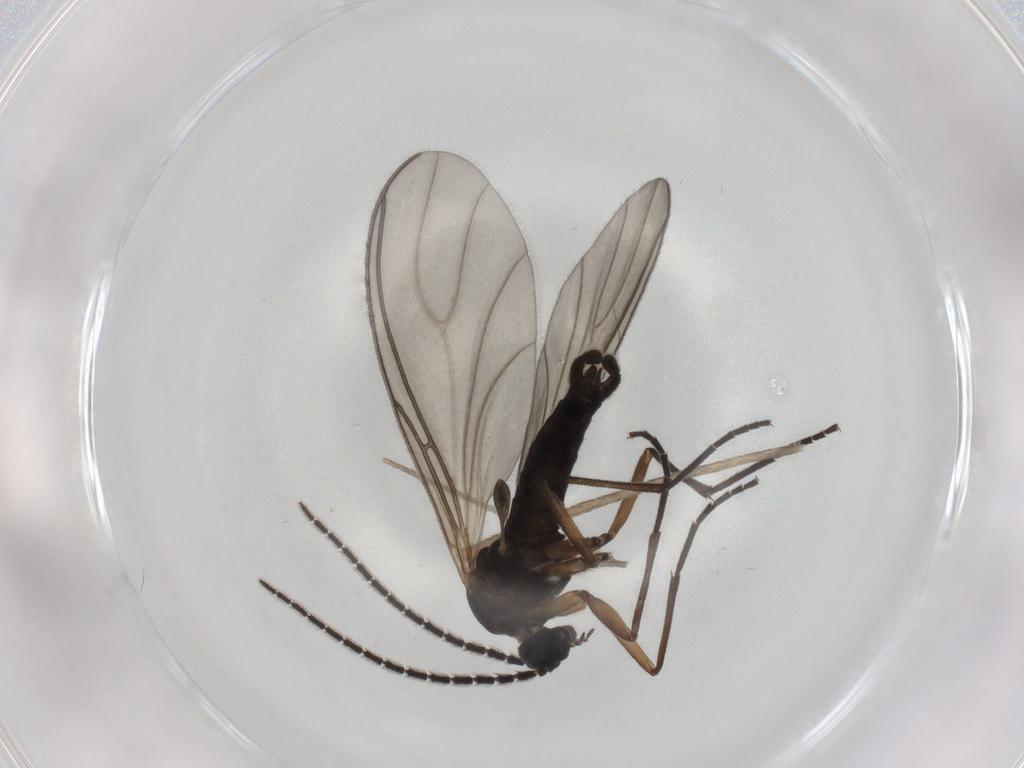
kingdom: Animalia
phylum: Arthropoda
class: Insecta
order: Diptera
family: Sciaridae
